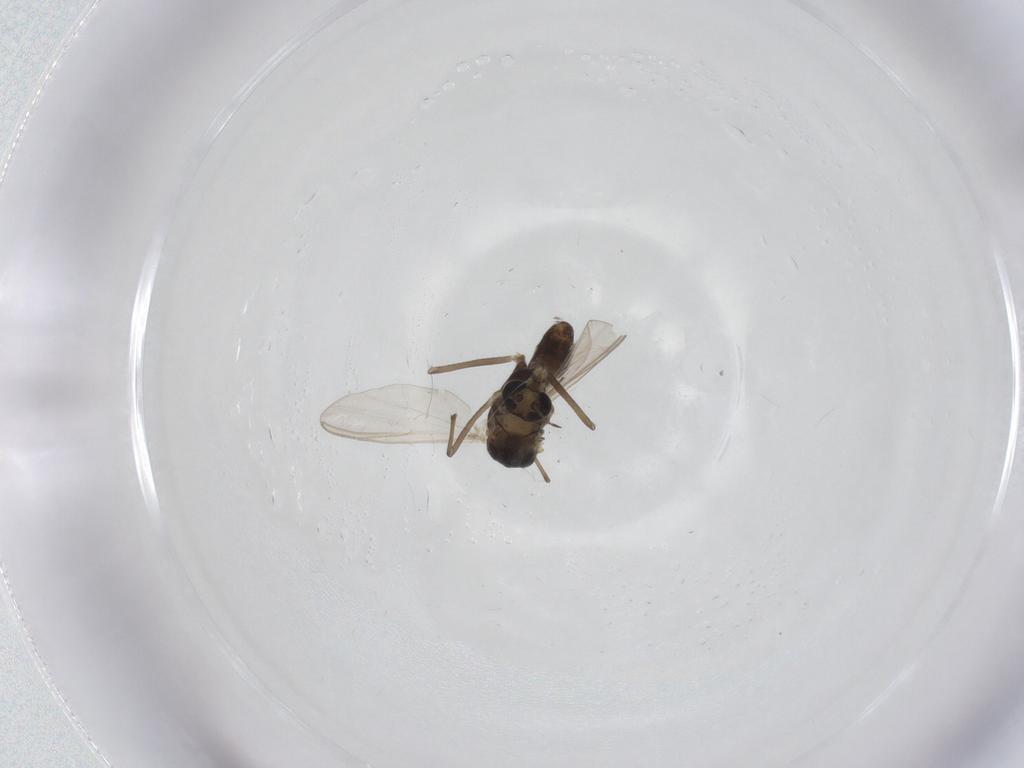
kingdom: Animalia
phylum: Arthropoda
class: Insecta
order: Diptera
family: Chironomidae
